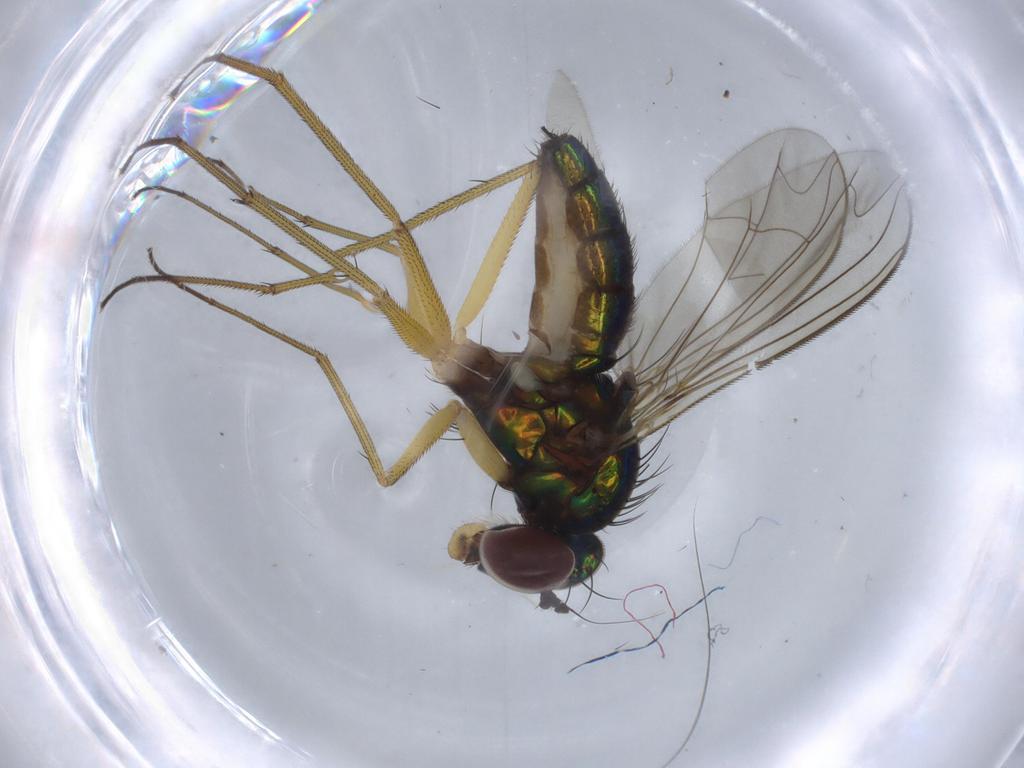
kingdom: Animalia
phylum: Arthropoda
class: Insecta
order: Diptera
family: Dolichopodidae
